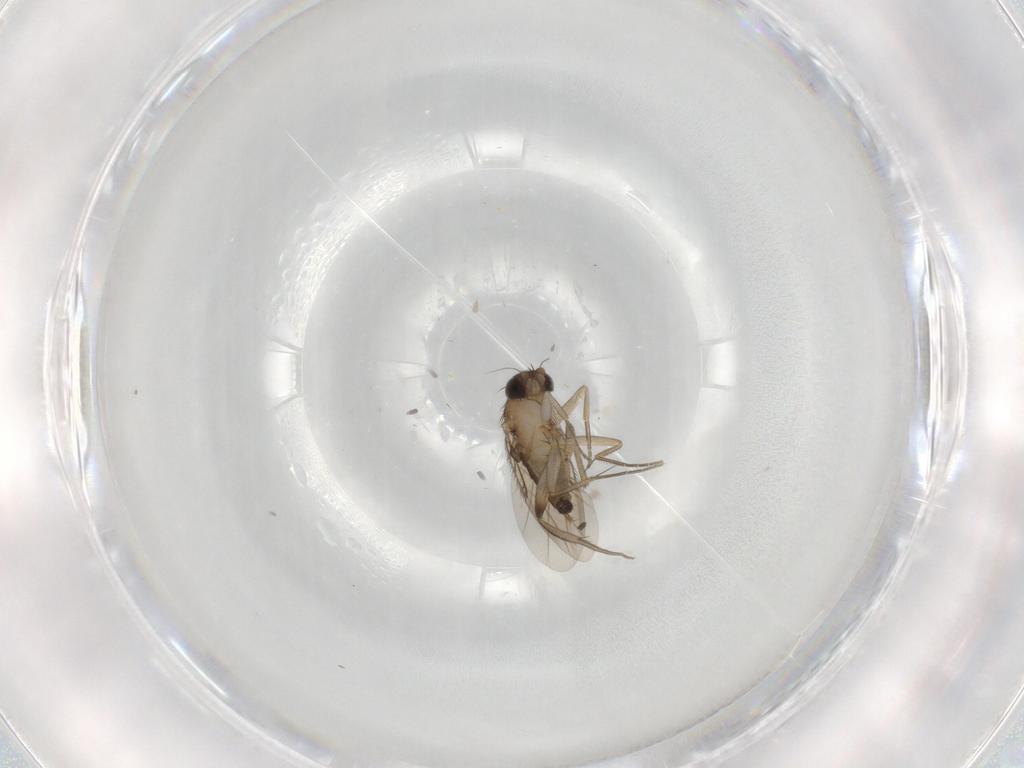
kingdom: Animalia
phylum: Arthropoda
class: Insecta
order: Diptera
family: Phoridae
